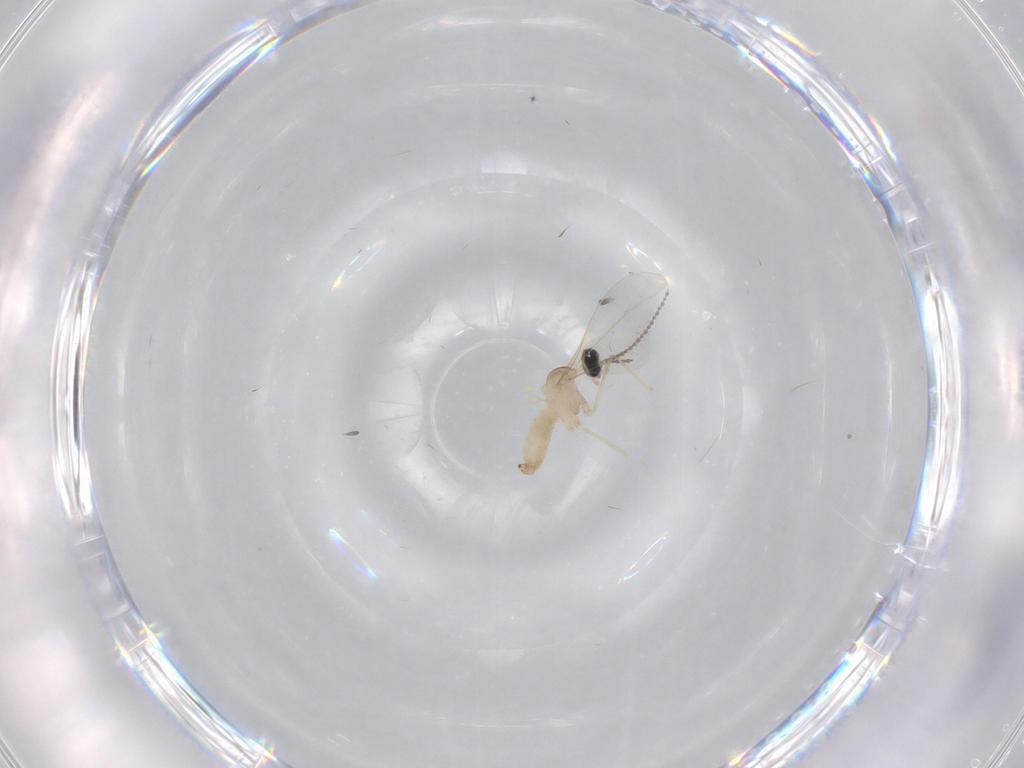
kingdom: Animalia
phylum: Arthropoda
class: Insecta
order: Diptera
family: Cecidomyiidae
